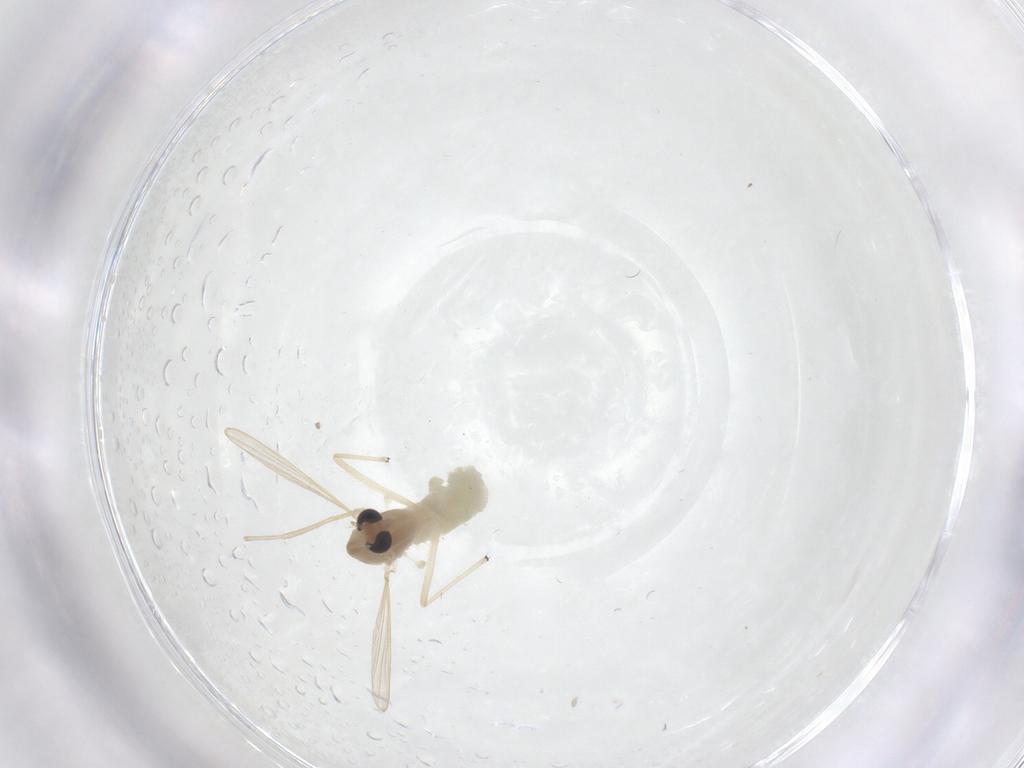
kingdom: Animalia
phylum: Arthropoda
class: Insecta
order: Diptera
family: Chironomidae
